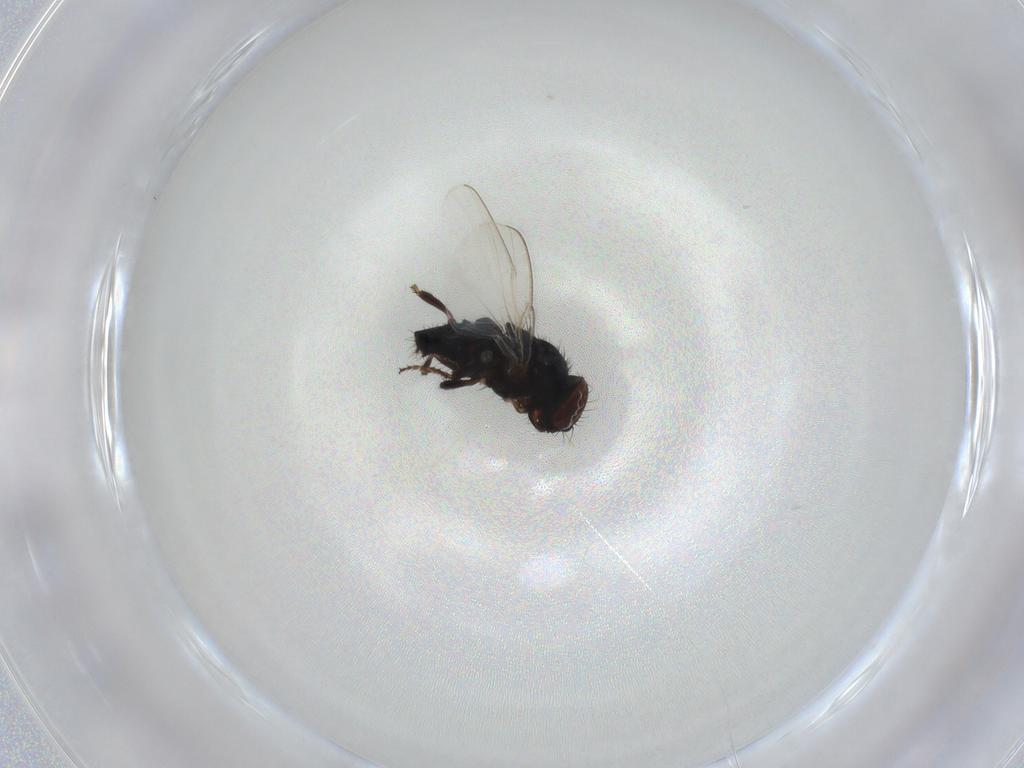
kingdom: Animalia
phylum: Arthropoda
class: Insecta
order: Diptera
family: Milichiidae
